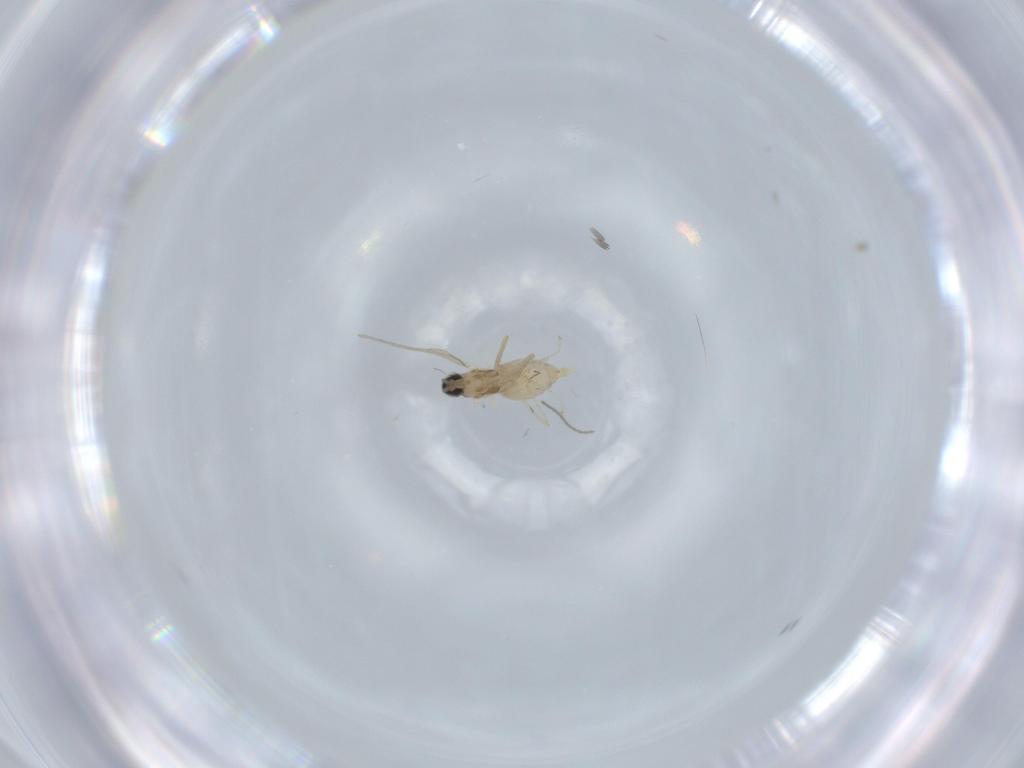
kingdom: Animalia
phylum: Arthropoda
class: Insecta
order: Diptera
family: Cecidomyiidae
